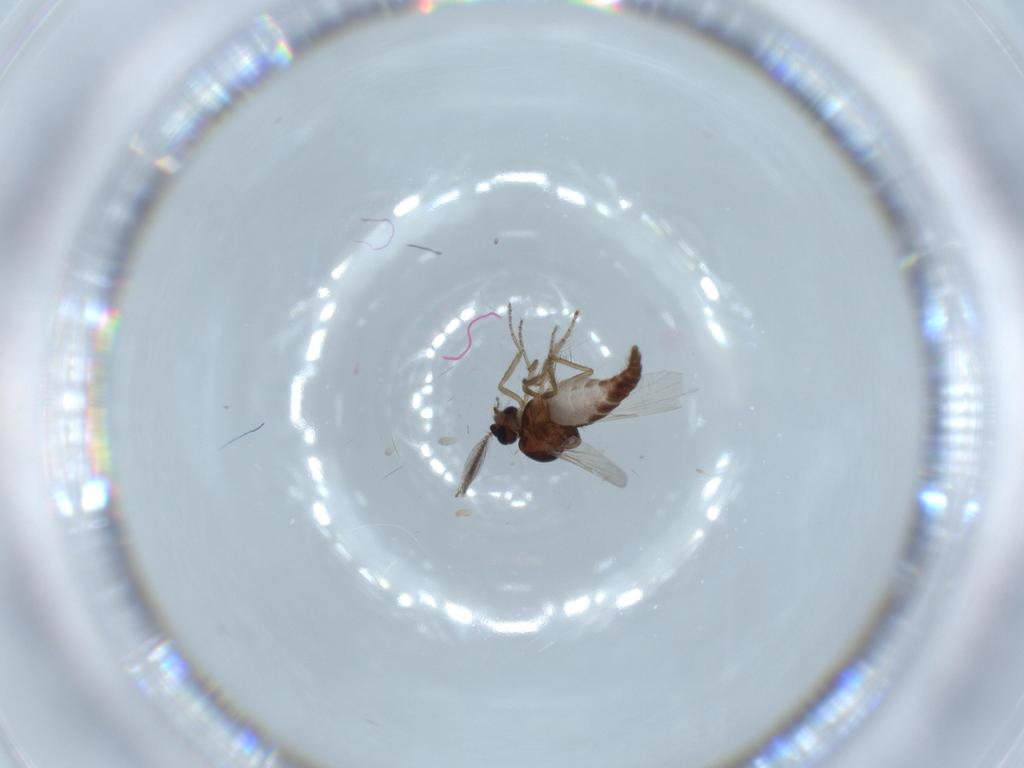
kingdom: Animalia
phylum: Arthropoda
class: Insecta
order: Diptera
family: Ceratopogonidae
